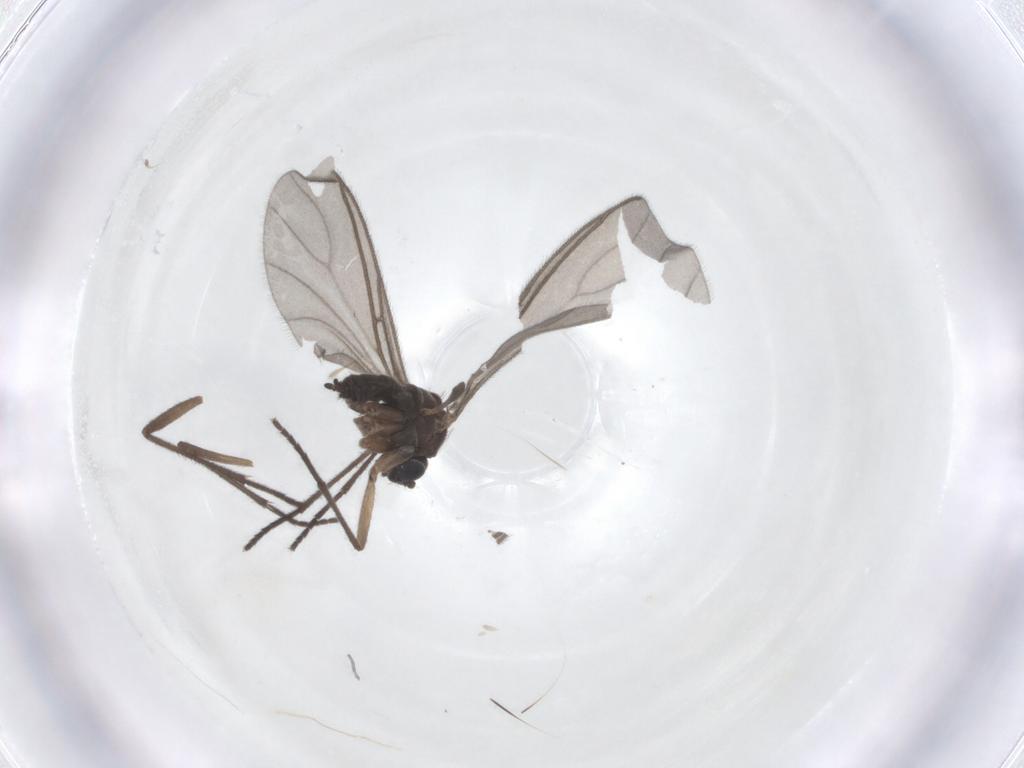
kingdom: Animalia
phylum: Arthropoda
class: Insecta
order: Diptera
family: Sciaridae
